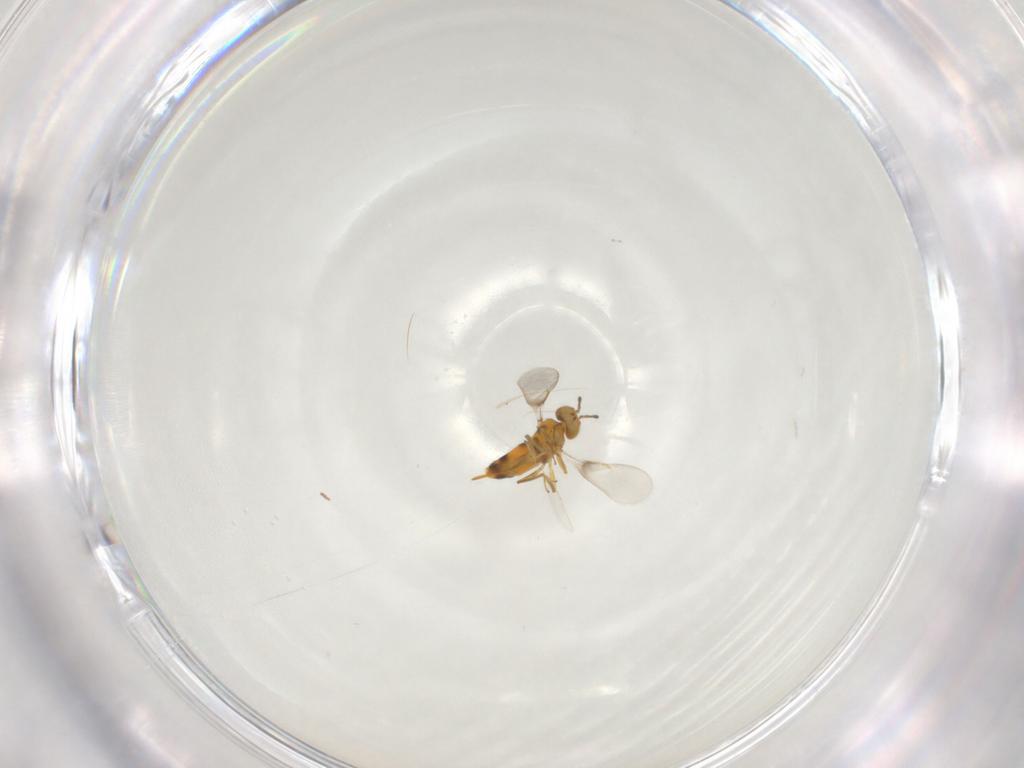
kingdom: Animalia
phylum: Arthropoda
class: Insecta
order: Hymenoptera
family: Aphelinidae
